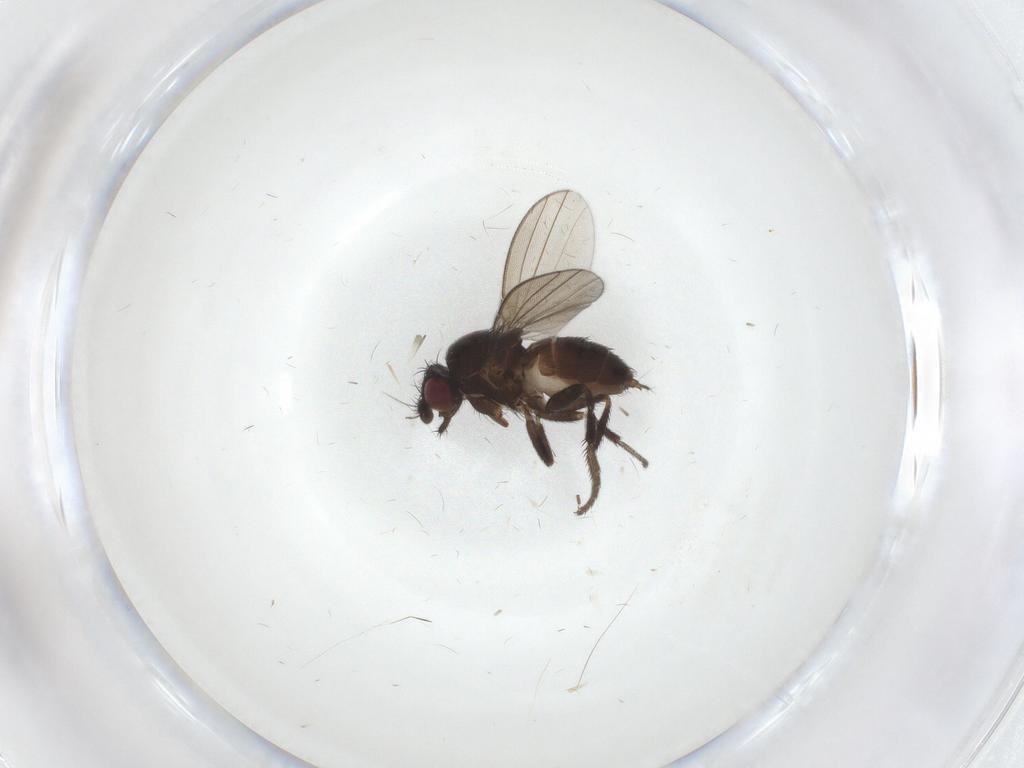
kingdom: Animalia
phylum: Arthropoda
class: Insecta
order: Diptera
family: Milichiidae
